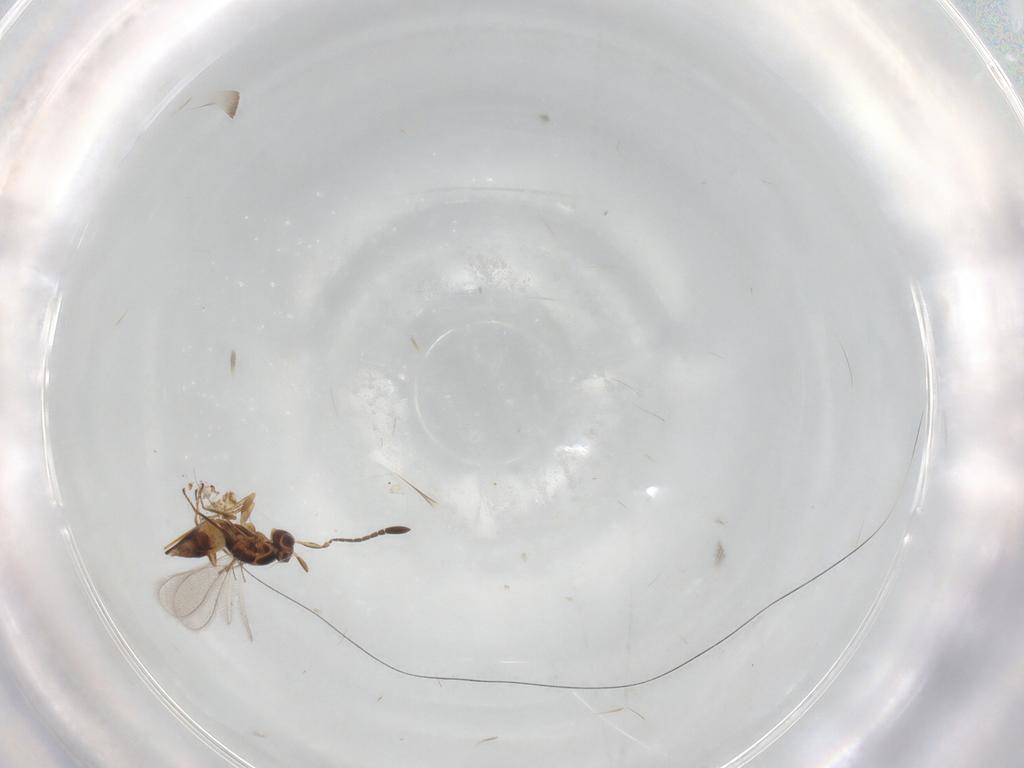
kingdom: Animalia
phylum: Arthropoda
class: Insecta
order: Hymenoptera
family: Mymaridae
